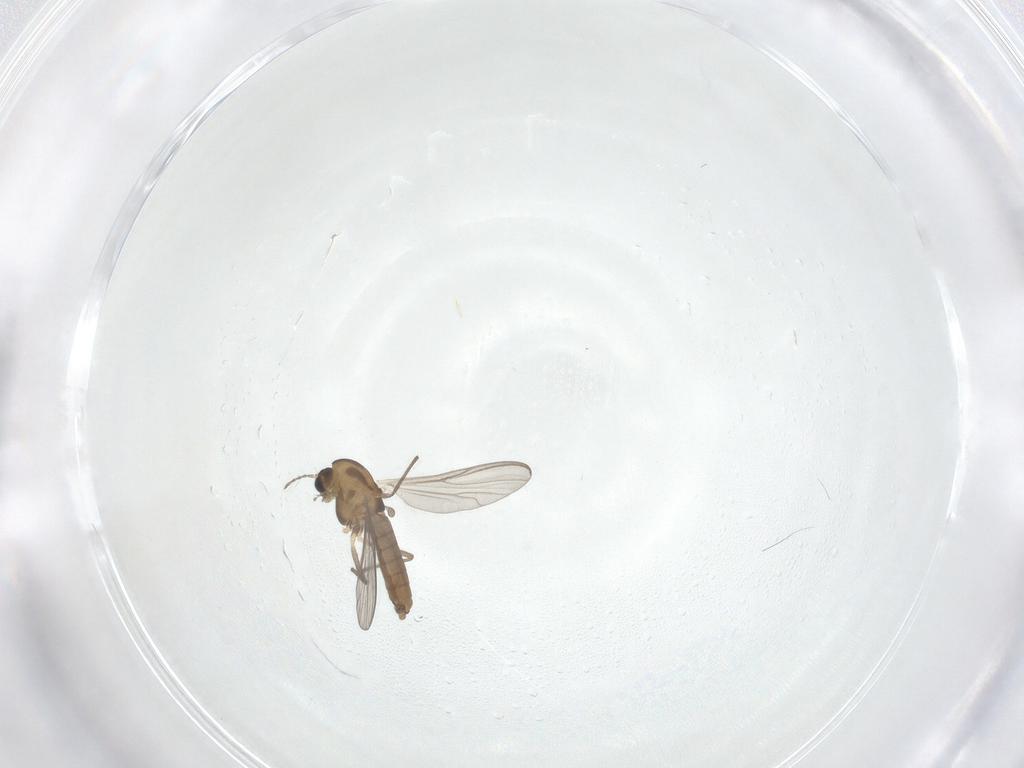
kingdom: Animalia
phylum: Arthropoda
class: Insecta
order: Diptera
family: Chironomidae
